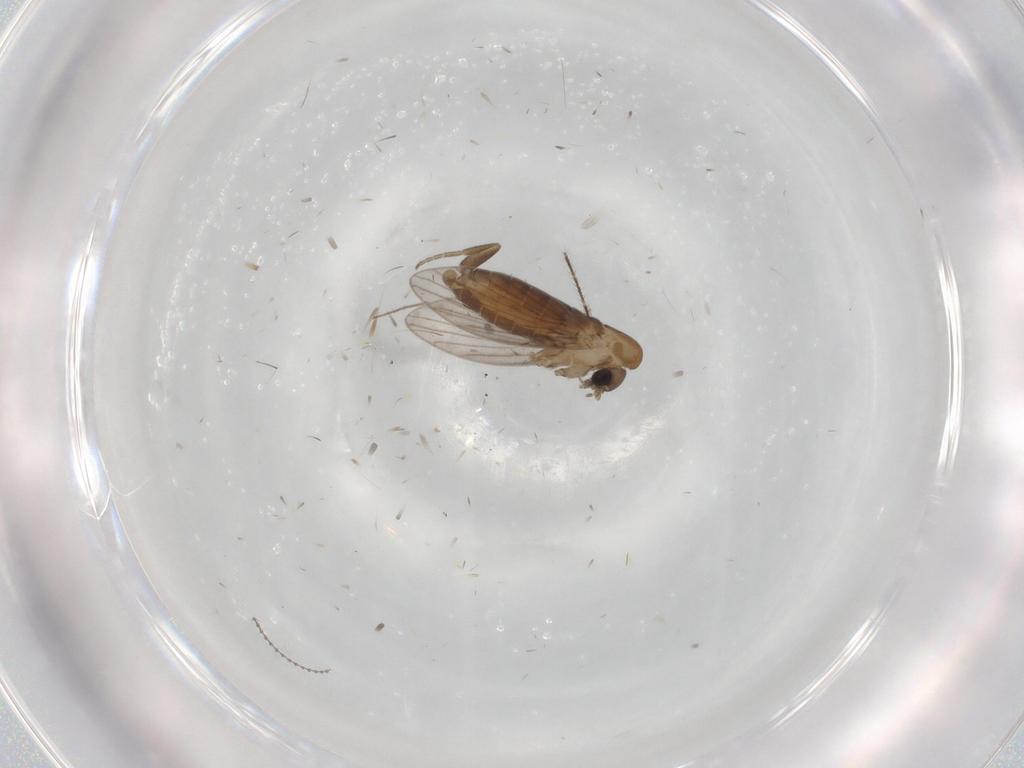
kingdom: Animalia
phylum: Arthropoda
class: Insecta
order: Diptera
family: Psychodidae
